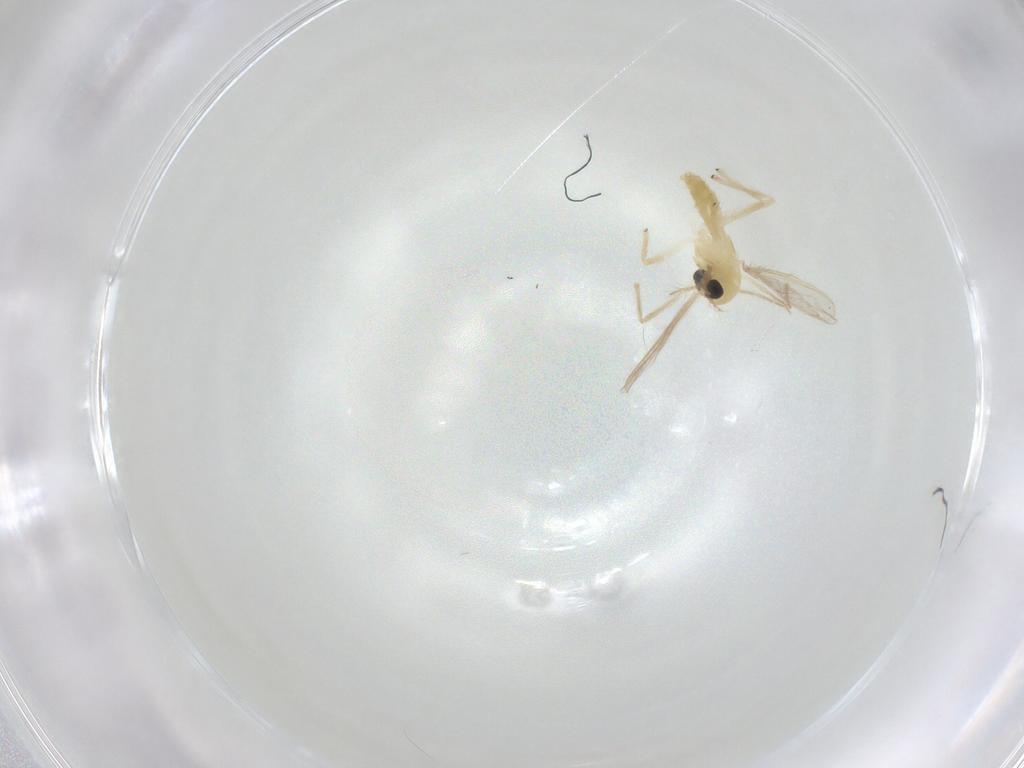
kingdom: Animalia
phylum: Arthropoda
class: Insecta
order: Diptera
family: Chironomidae
